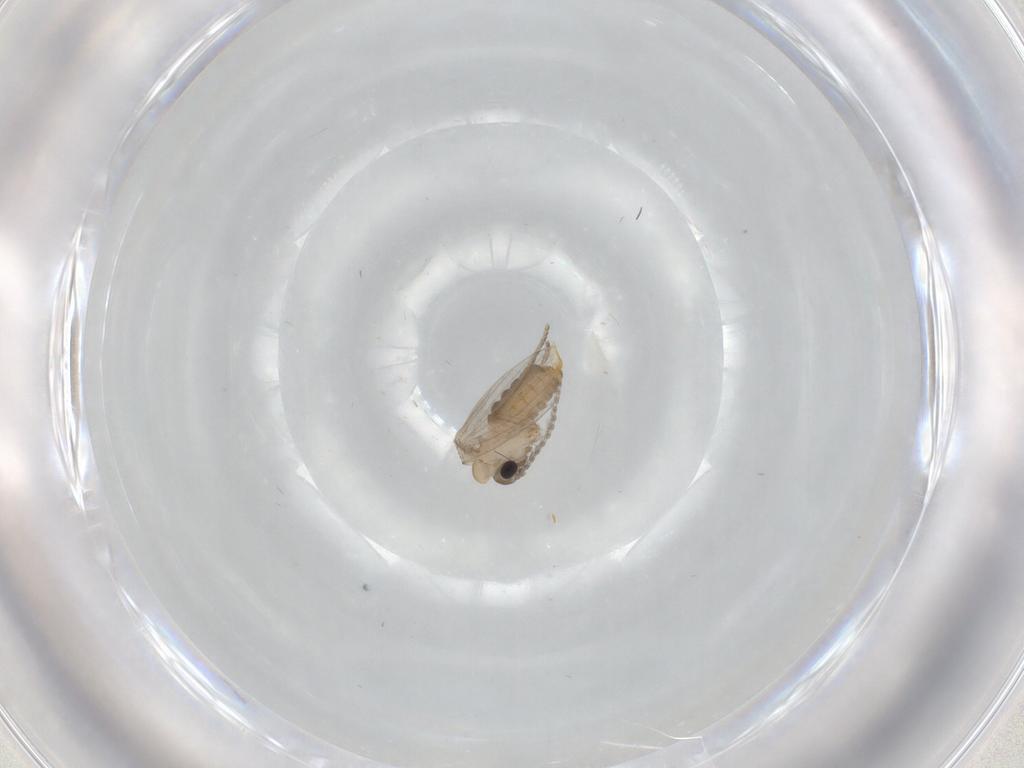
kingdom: Animalia
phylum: Arthropoda
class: Insecta
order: Diptera
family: Psychodidae
